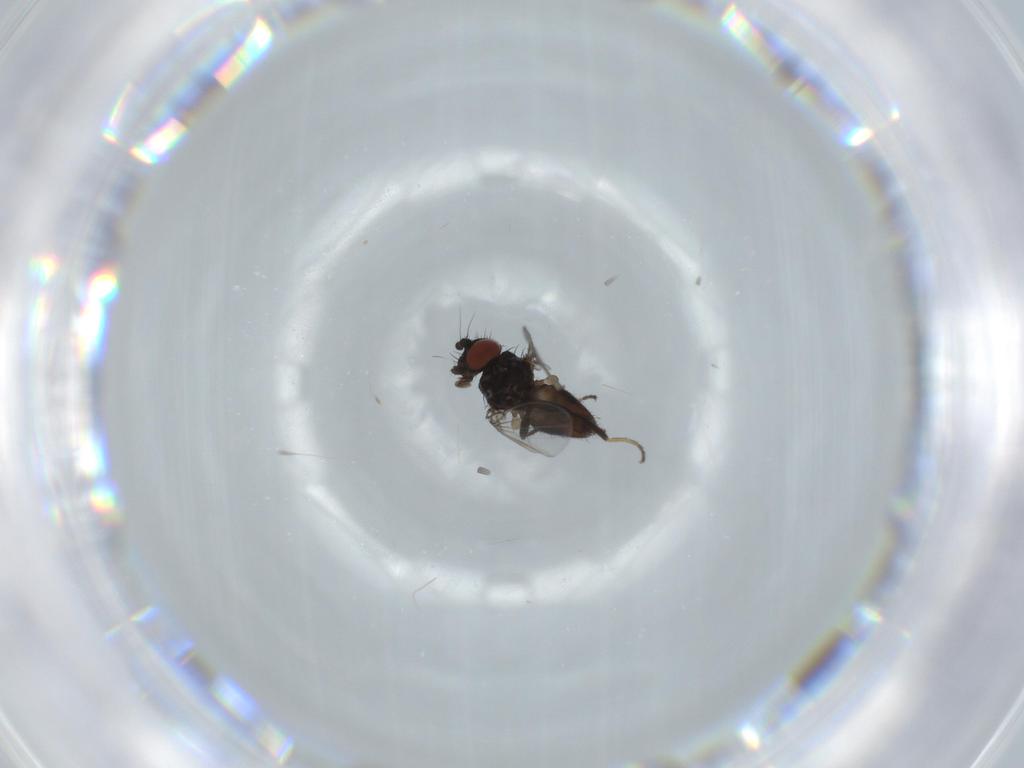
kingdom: Animalia
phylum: Arthropoda
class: Insecta
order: Diptera
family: Milichiidae
